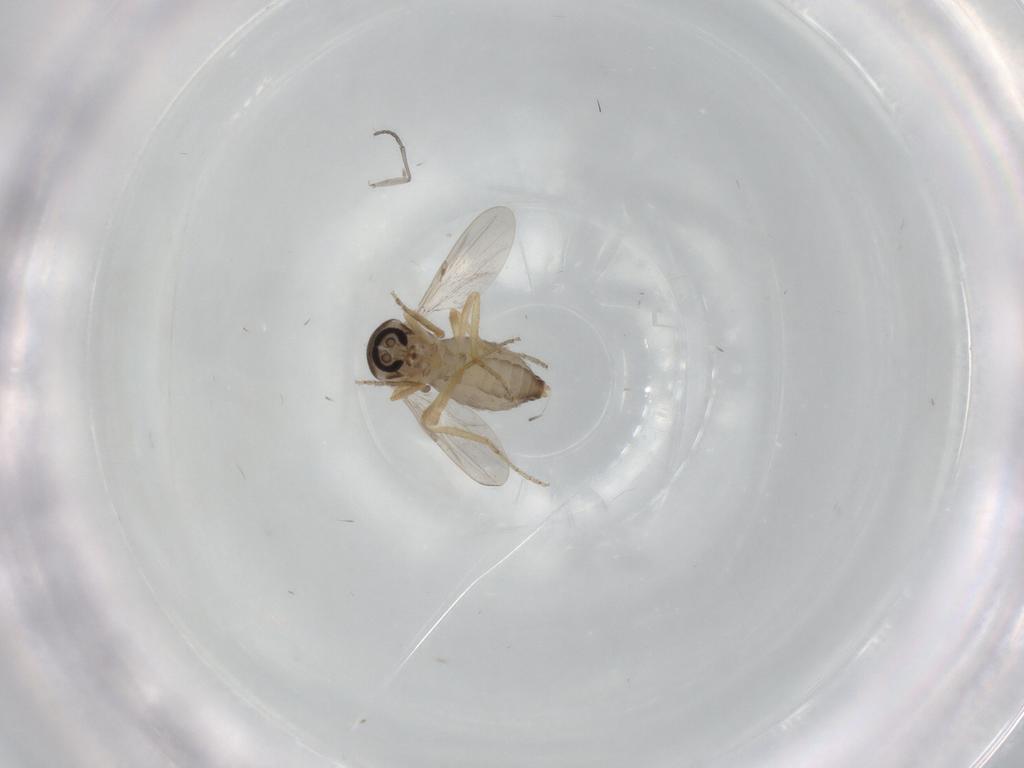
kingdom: Animalia
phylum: Arthropoda
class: Insecta
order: Diptera
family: Ceratopogonidae
